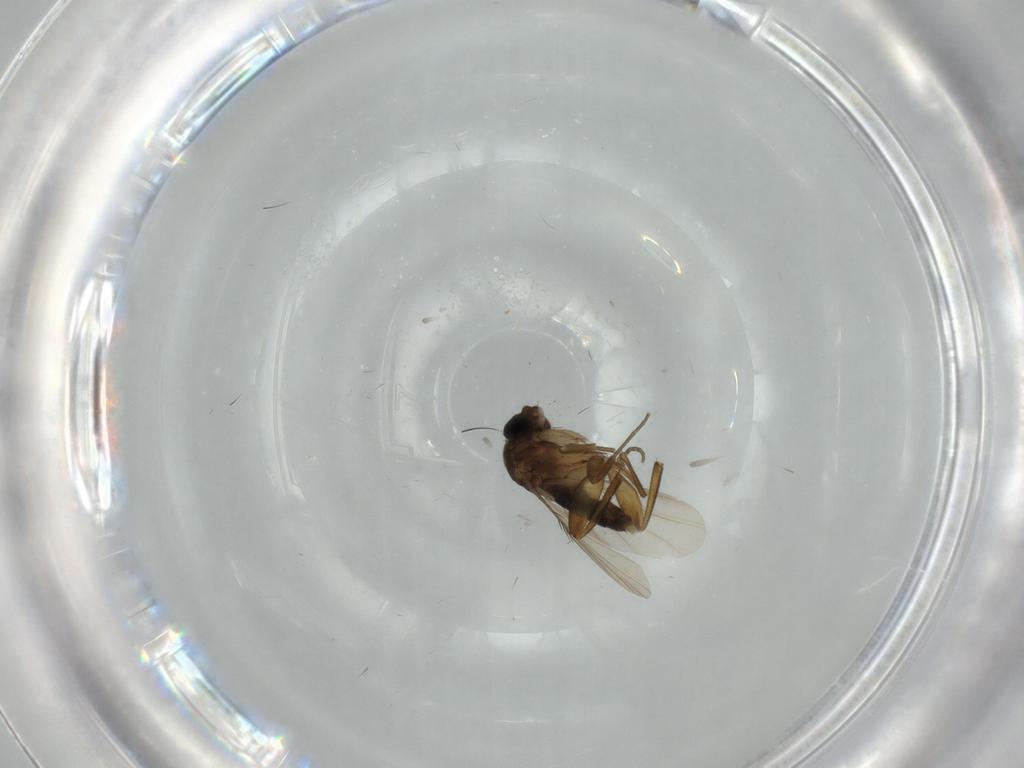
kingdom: Animalia
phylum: Arthropoda
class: Insecta
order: Diptera
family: Phoridae
